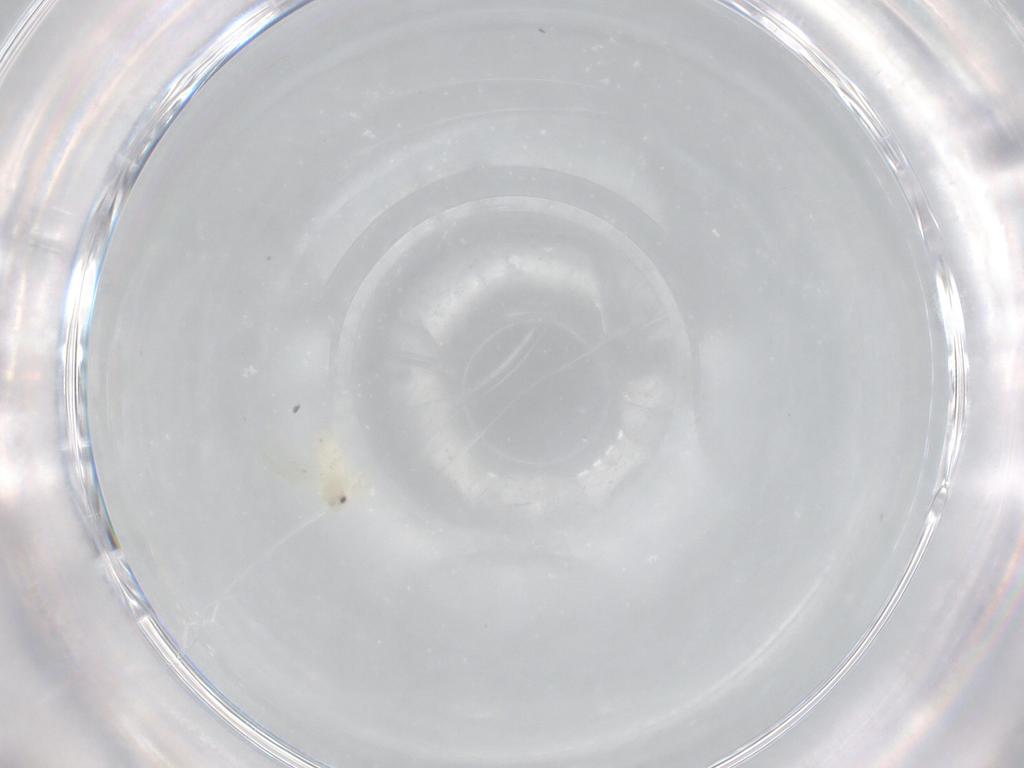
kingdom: Animalia
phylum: Arthropoda
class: Insecta
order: Hemiptera
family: Aleyrodidae
